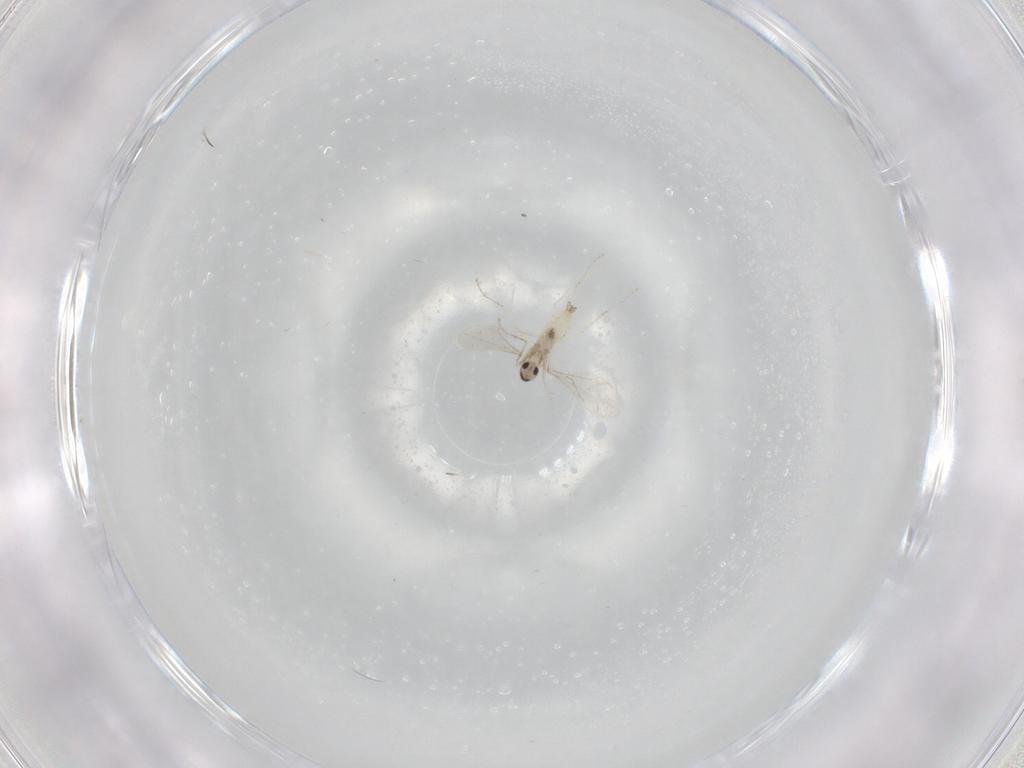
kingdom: Animalia
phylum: Arthropoda
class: Insecta
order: Diptera
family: Cecidomyiidae
